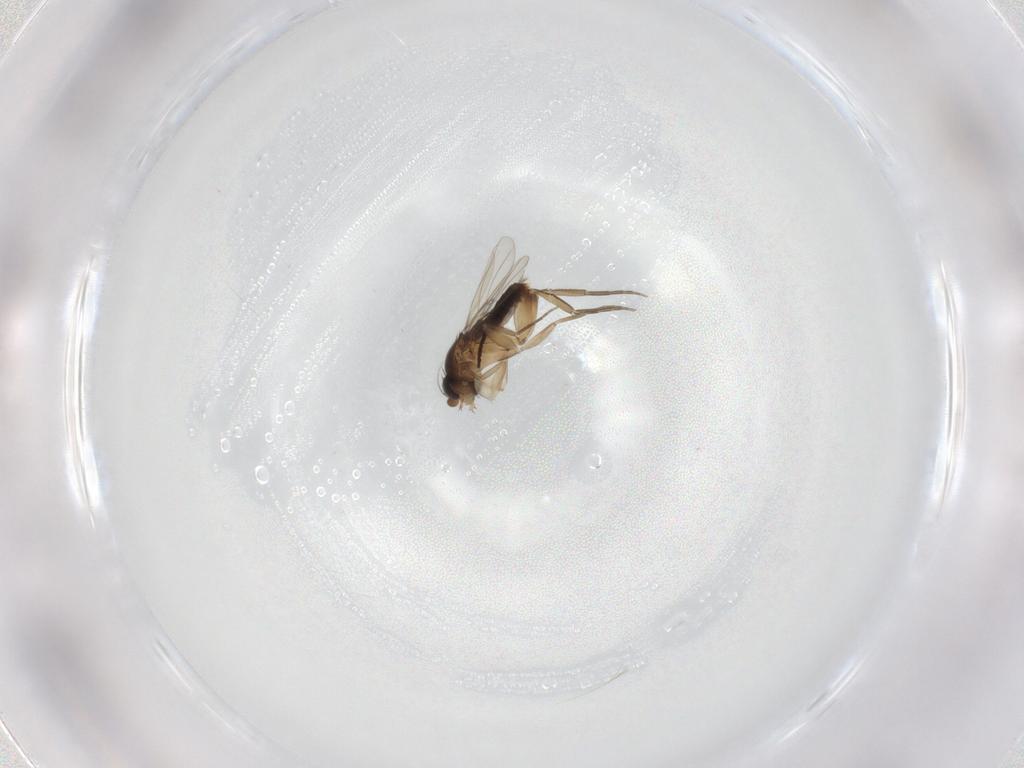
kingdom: Animalia
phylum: Arthropoda
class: Insecta
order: Diptera
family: Phoridae
